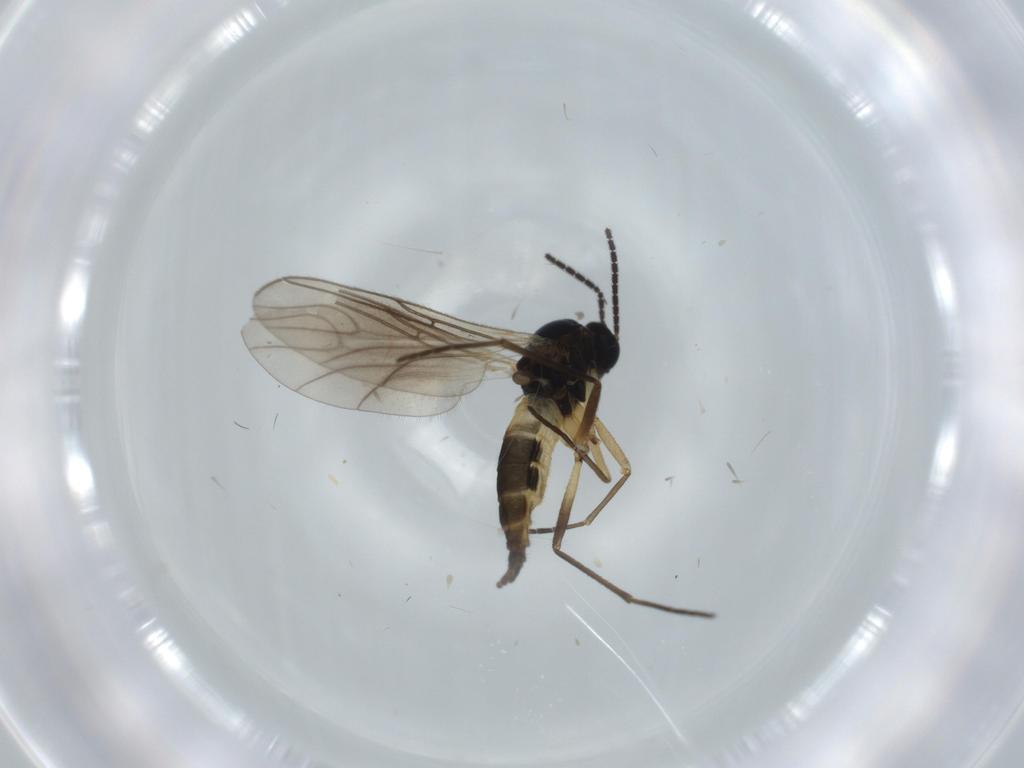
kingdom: Animalia
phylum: Arthropoda
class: Insecta
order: Diptera
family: Sciaridae
